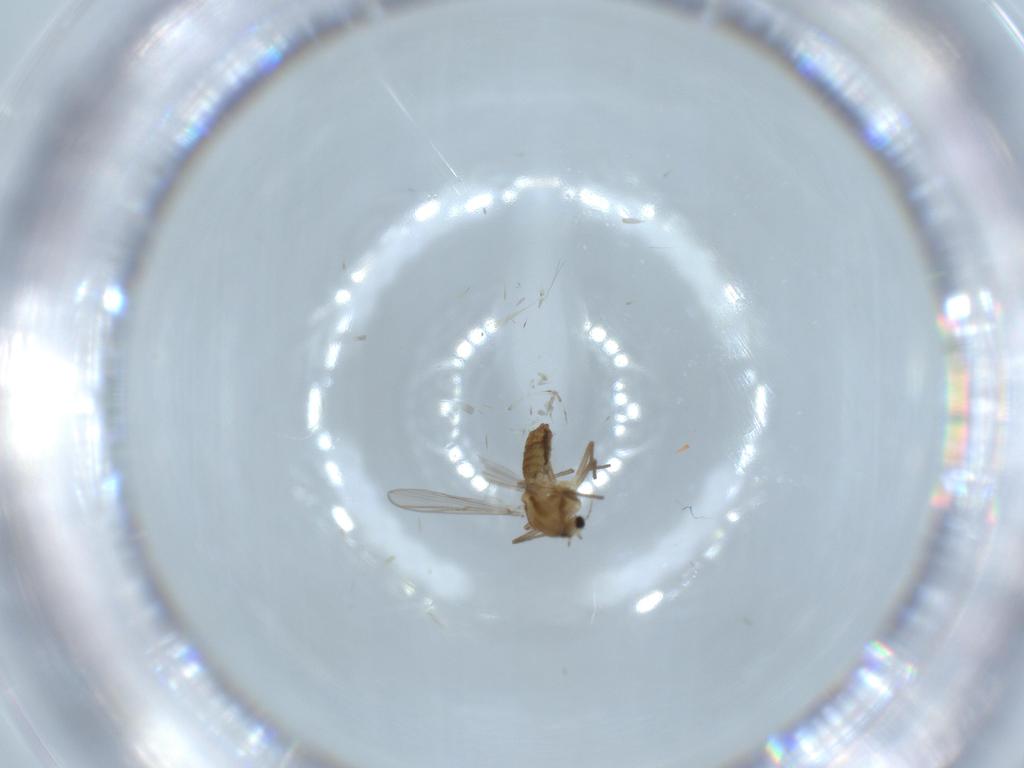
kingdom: Animalia
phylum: Arthropoda
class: Insecta
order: Diptera
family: Chironomidae
